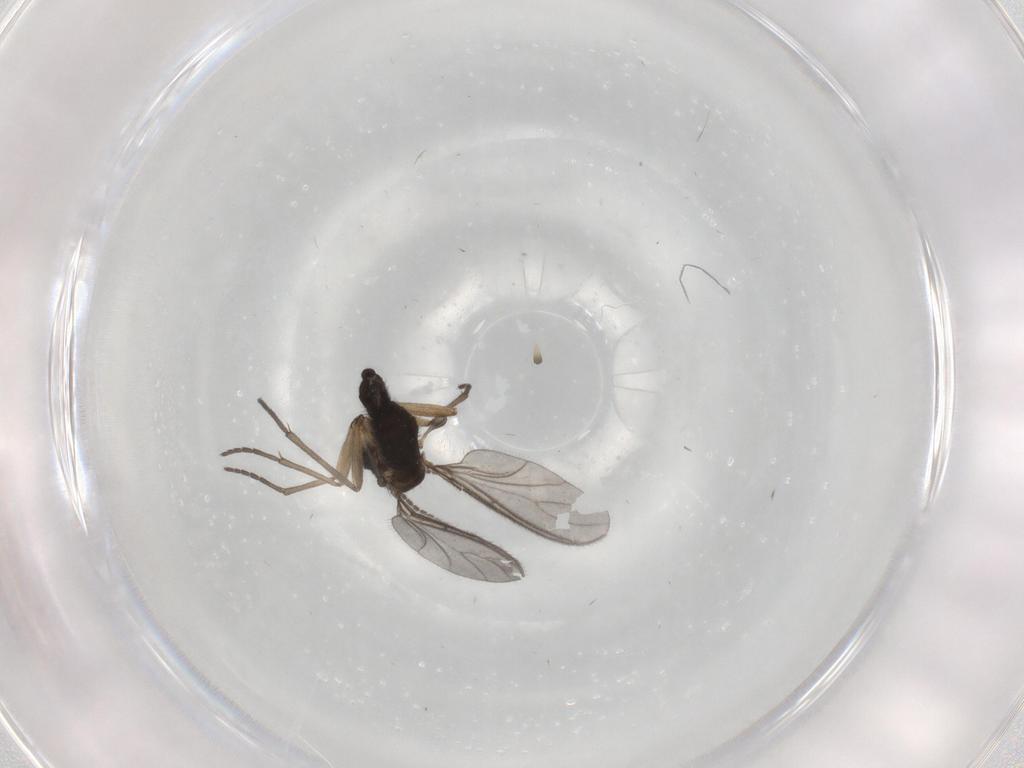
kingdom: Animalia
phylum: Arthropoda
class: Insecta
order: Diptera
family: Sciaridae
